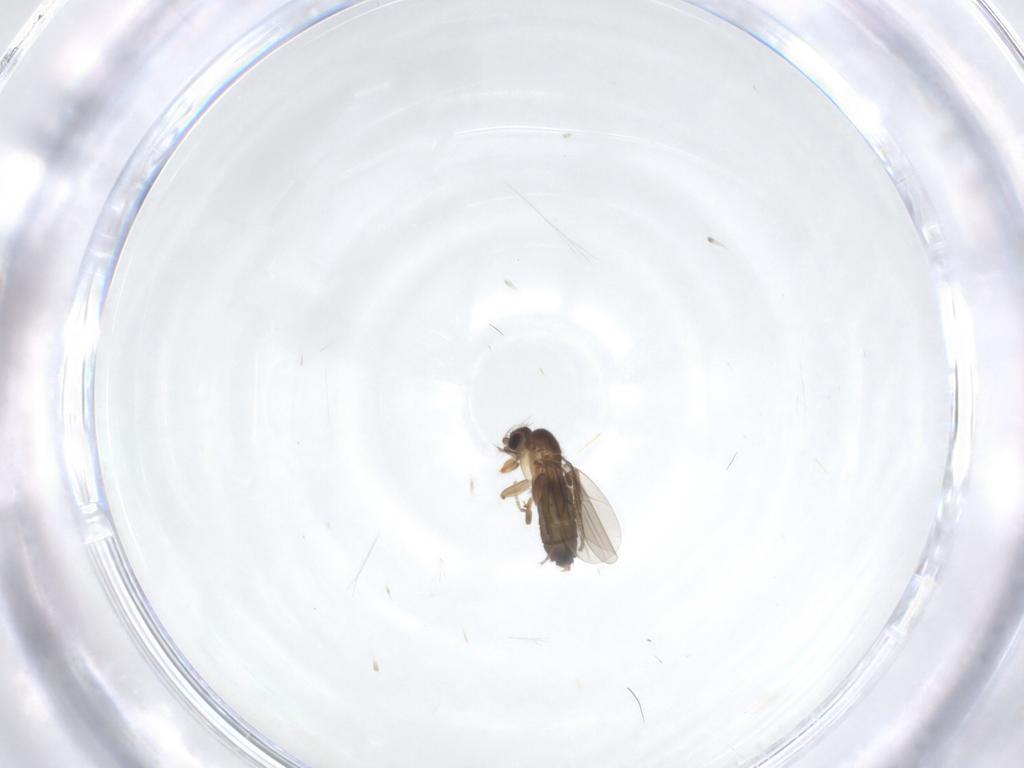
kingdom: Animalia
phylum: Arthropoda
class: Insecta
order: Diptera
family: Phoridae
